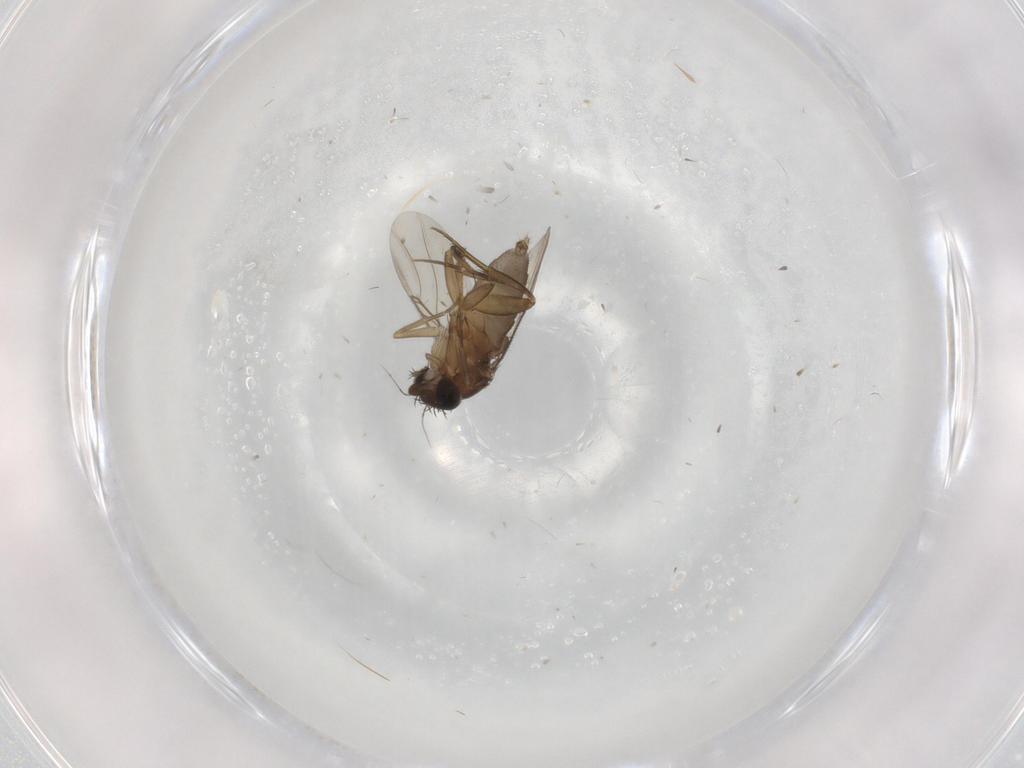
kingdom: Animalia
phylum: Arthropoda
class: Insecta
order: Diptera
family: Phoridae
